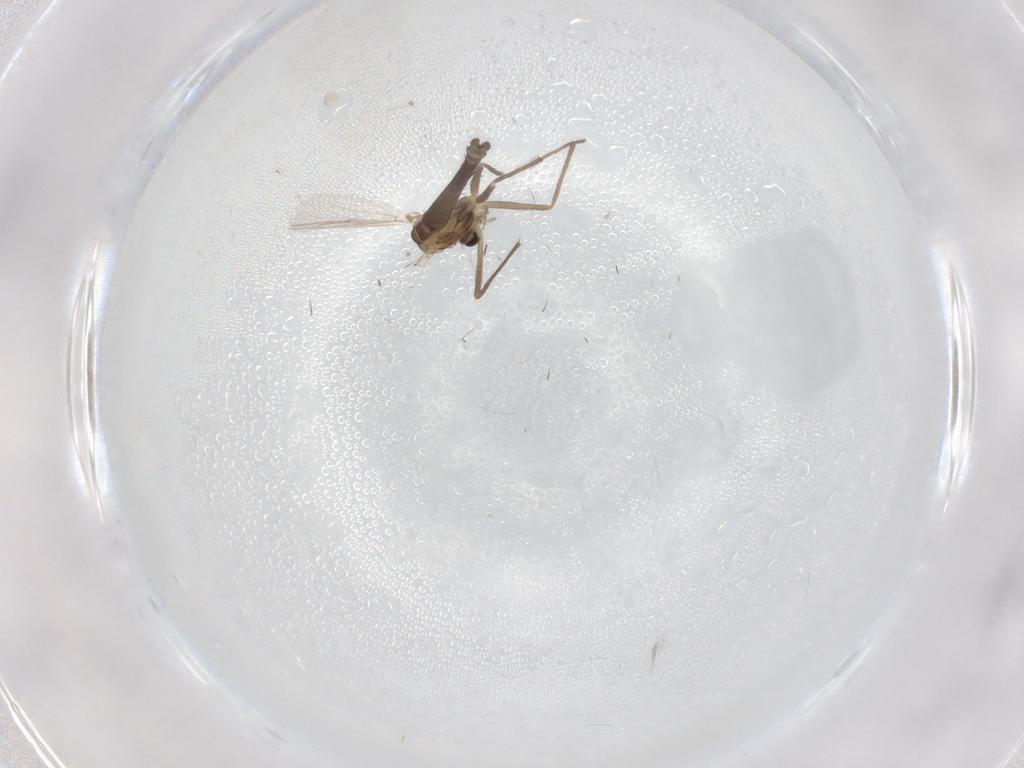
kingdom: Animalia
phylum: Arthropoda
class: Insecta
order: Diptera
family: Chironomidae
